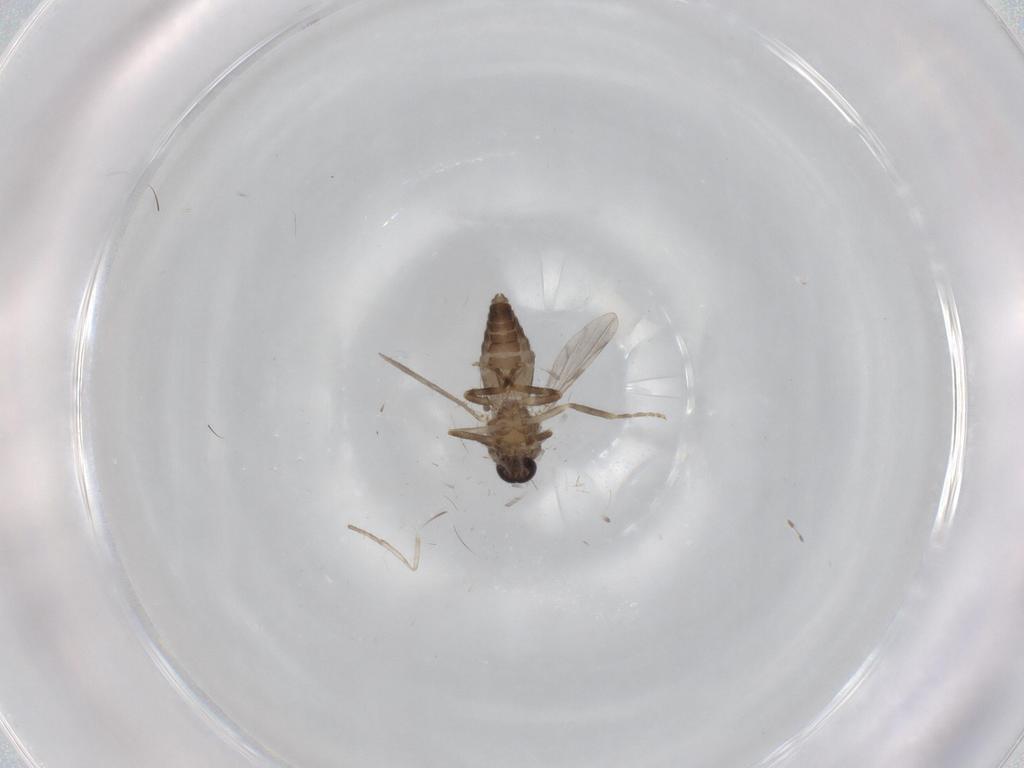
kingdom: Animalia
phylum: Arthropoda
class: Insecta
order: Diptera
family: Ceratopogonidae
